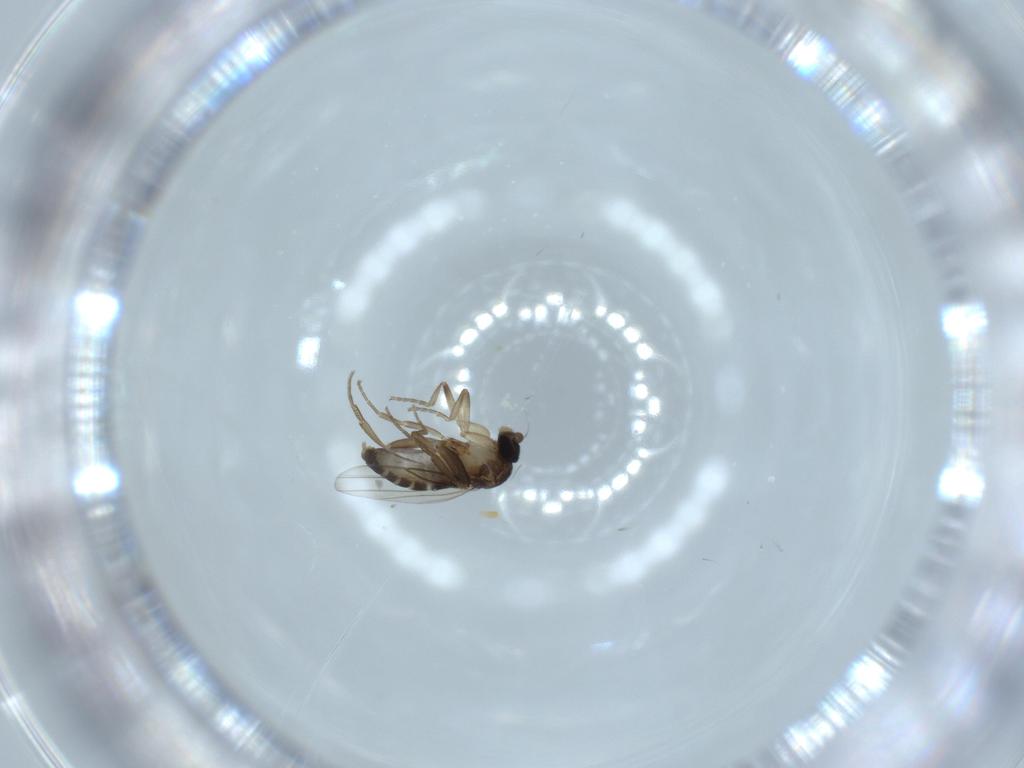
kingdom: Animalia
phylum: Arthropoda
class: Insecta
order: Diptera
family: Phoridae
